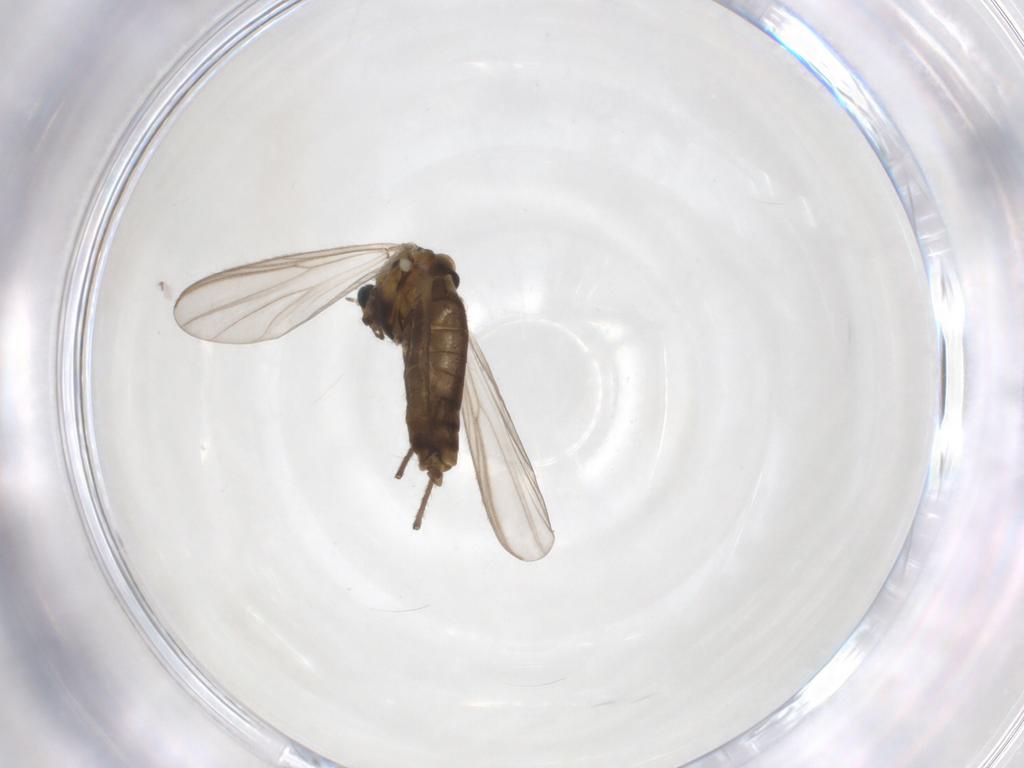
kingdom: Animalia
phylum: Arthropoda
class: Insecta
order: Diptera
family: Chironomidae
